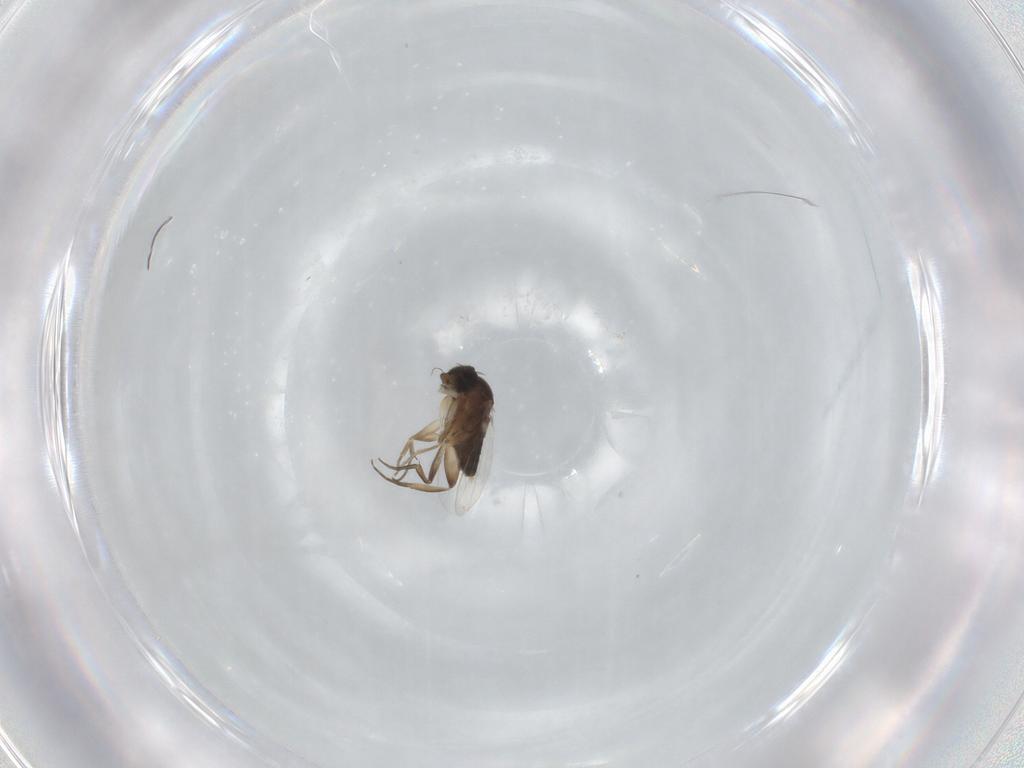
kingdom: Animalia
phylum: Arthropoda
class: Insecta
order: Diptera
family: Phoridae
